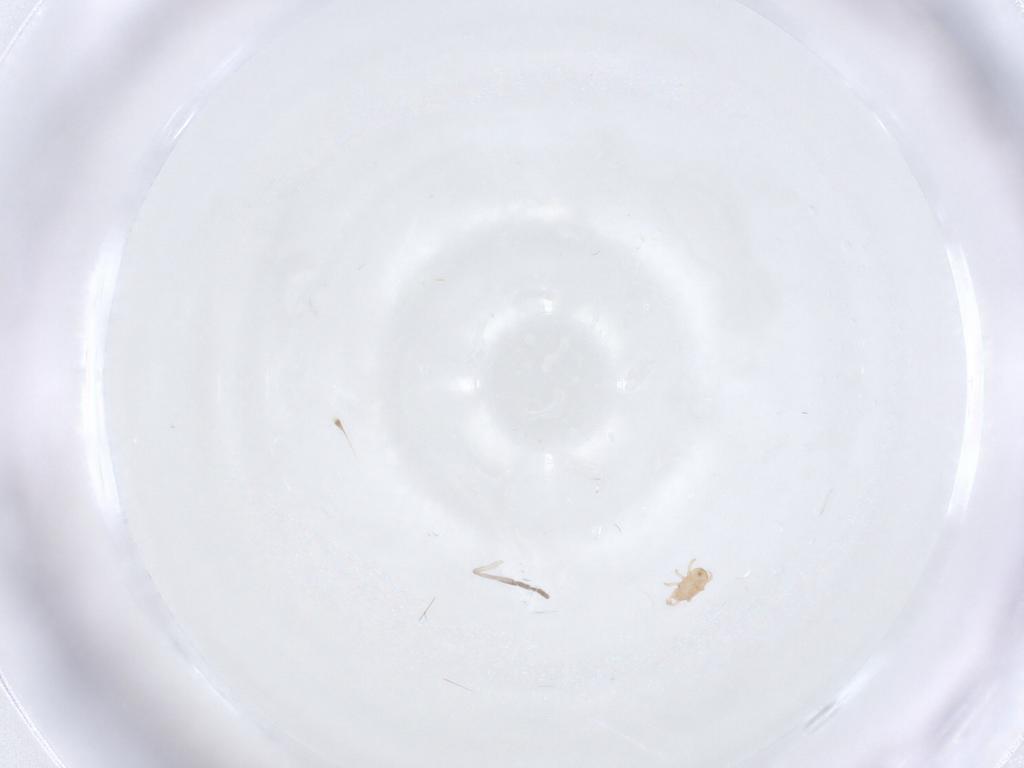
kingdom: Animalia
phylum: Arthropoda
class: Arachnida
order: Mesostigmata
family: Ascidae
